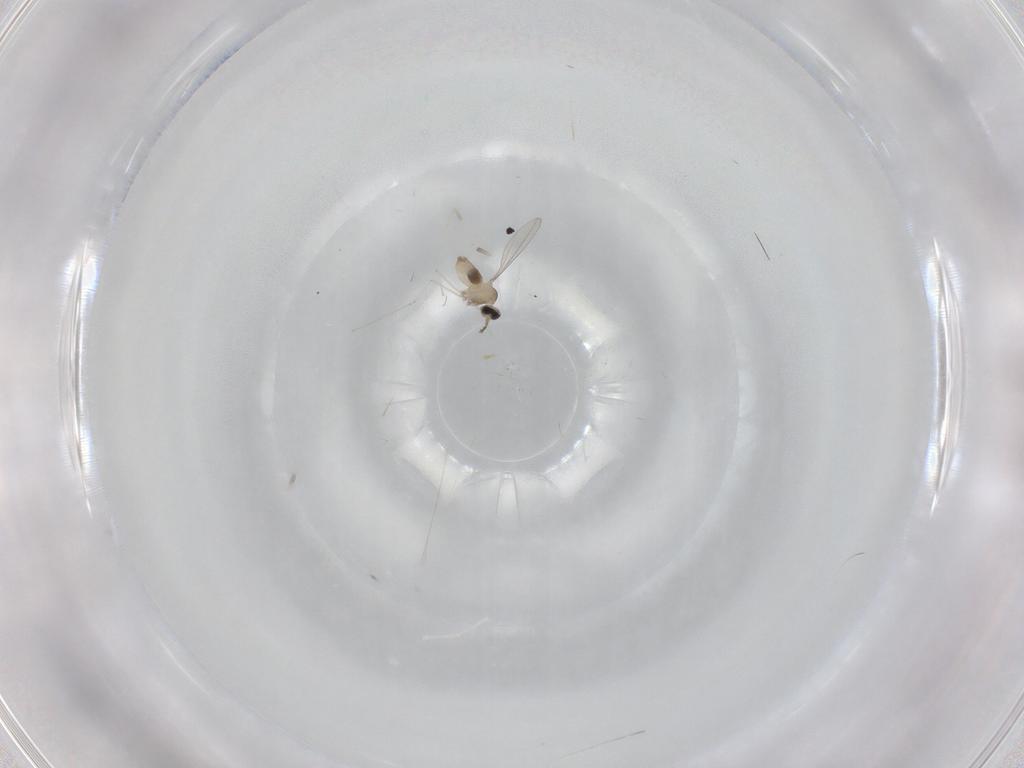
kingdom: Animalia
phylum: Arthropoda
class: Insecta
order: Diptera
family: Cecidomyiidae
